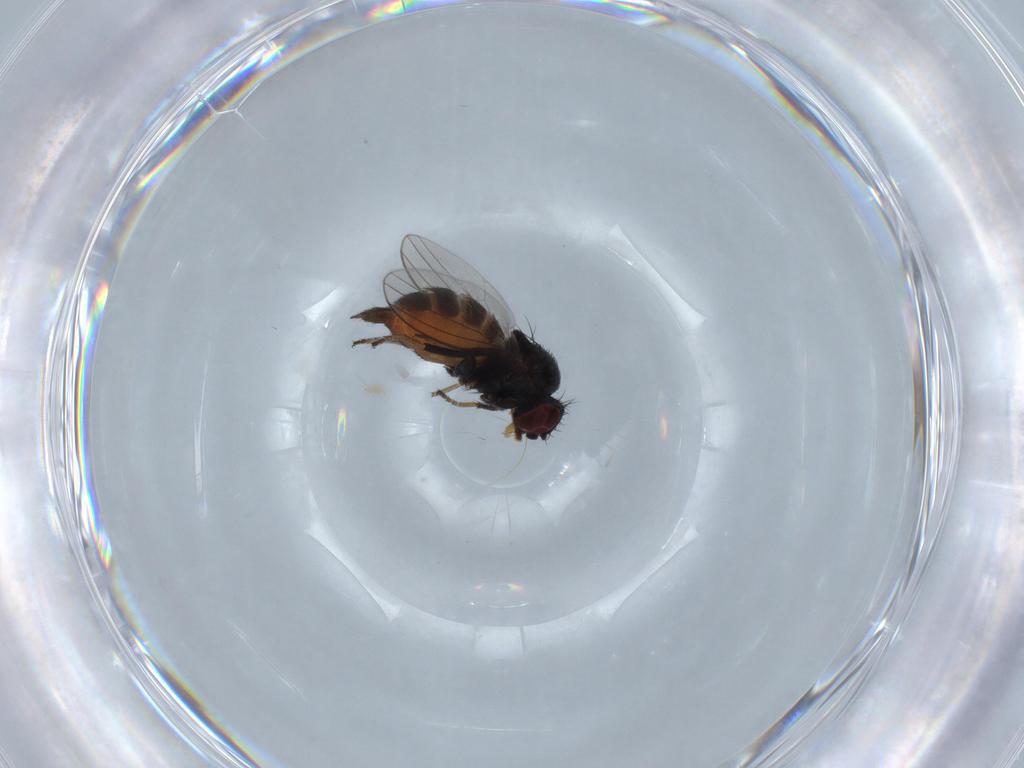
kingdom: Animalia
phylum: Arthropoda
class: Insecta
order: Diptera
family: Milichiidae
